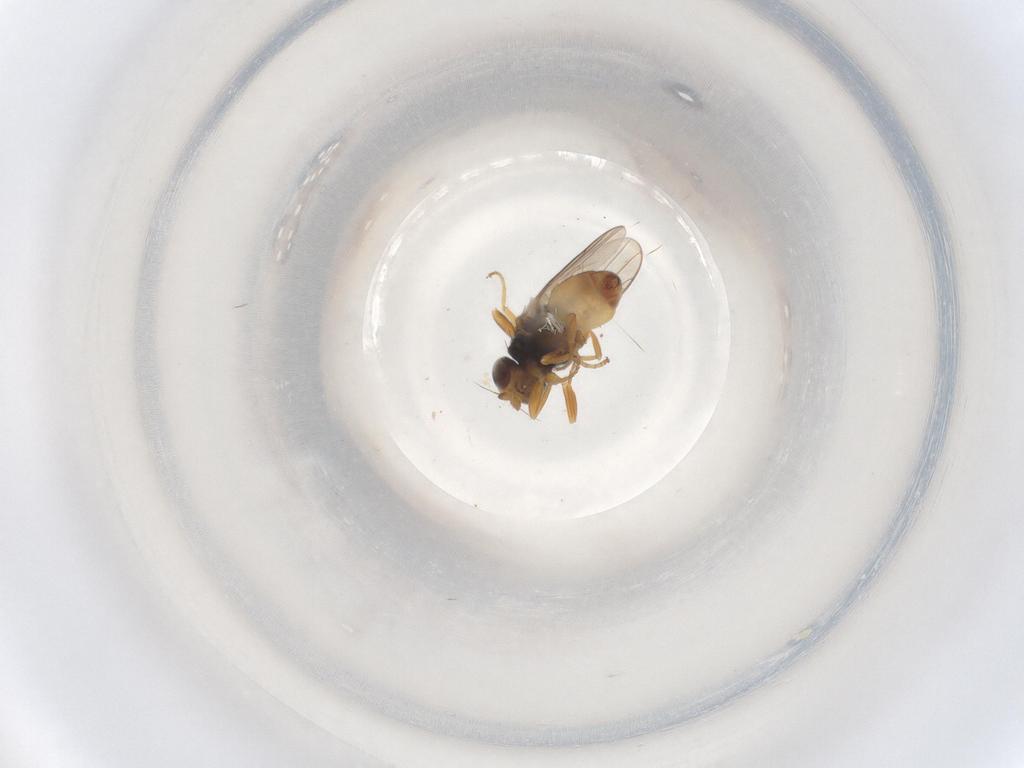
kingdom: Animalia
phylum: Arthropoda
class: Insecta
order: Diptera
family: Chloropidae
